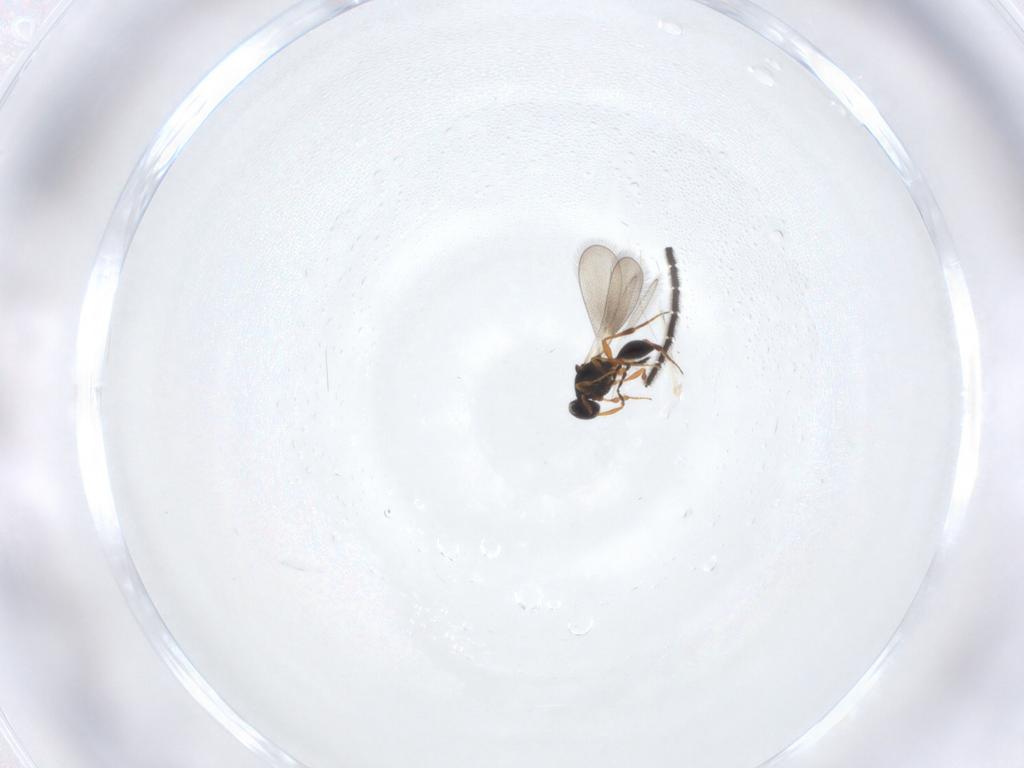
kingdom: Animalia
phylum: Arthropoda
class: Insecta
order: Hymenoptera
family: Platygastridae
